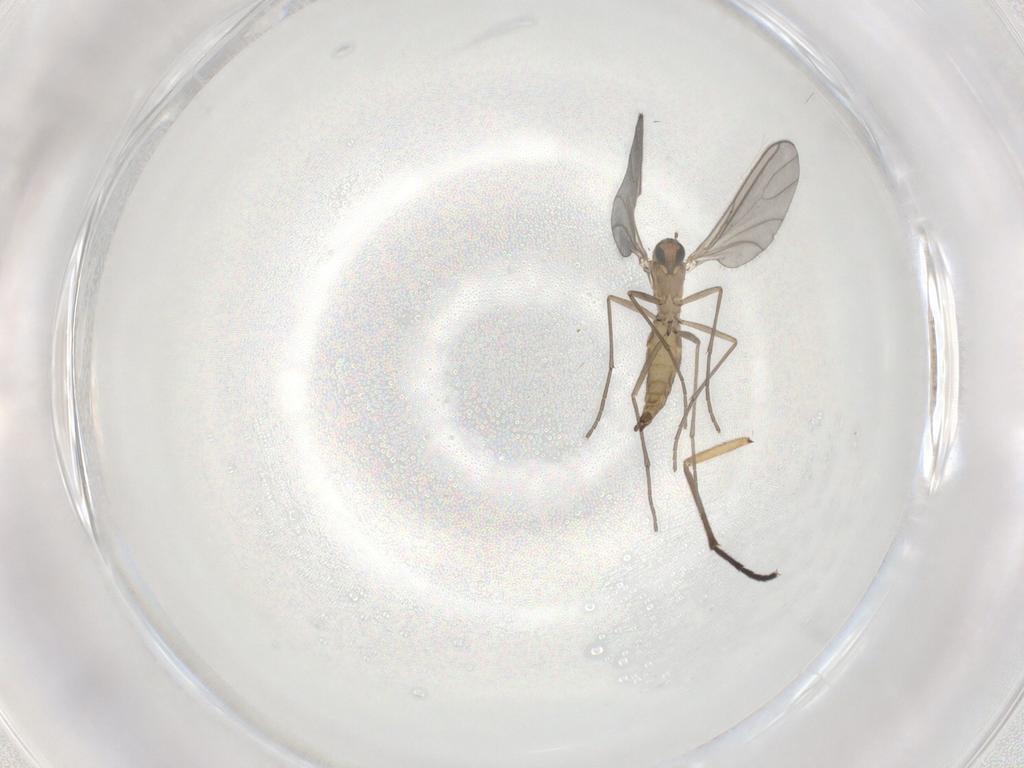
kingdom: Animalia
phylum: Arthropoda
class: Insecta
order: Diptera
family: Sciaridae
